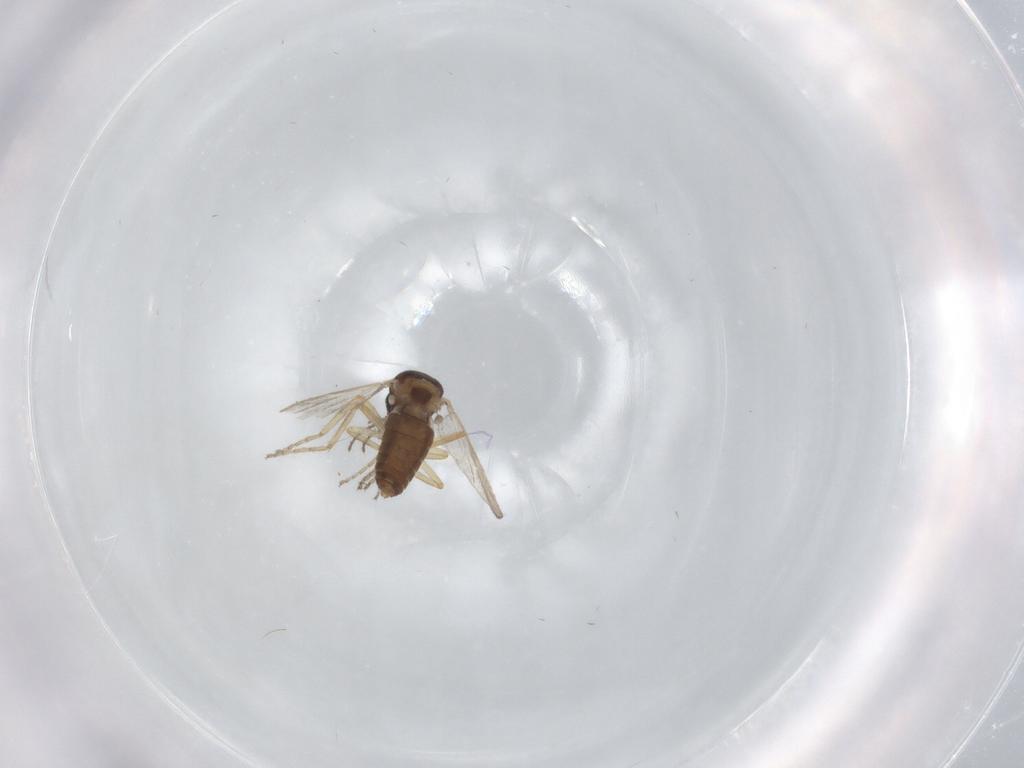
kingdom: Animalia
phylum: Arthropoda
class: Insecta
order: Diptera
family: Ceratopogonidae
